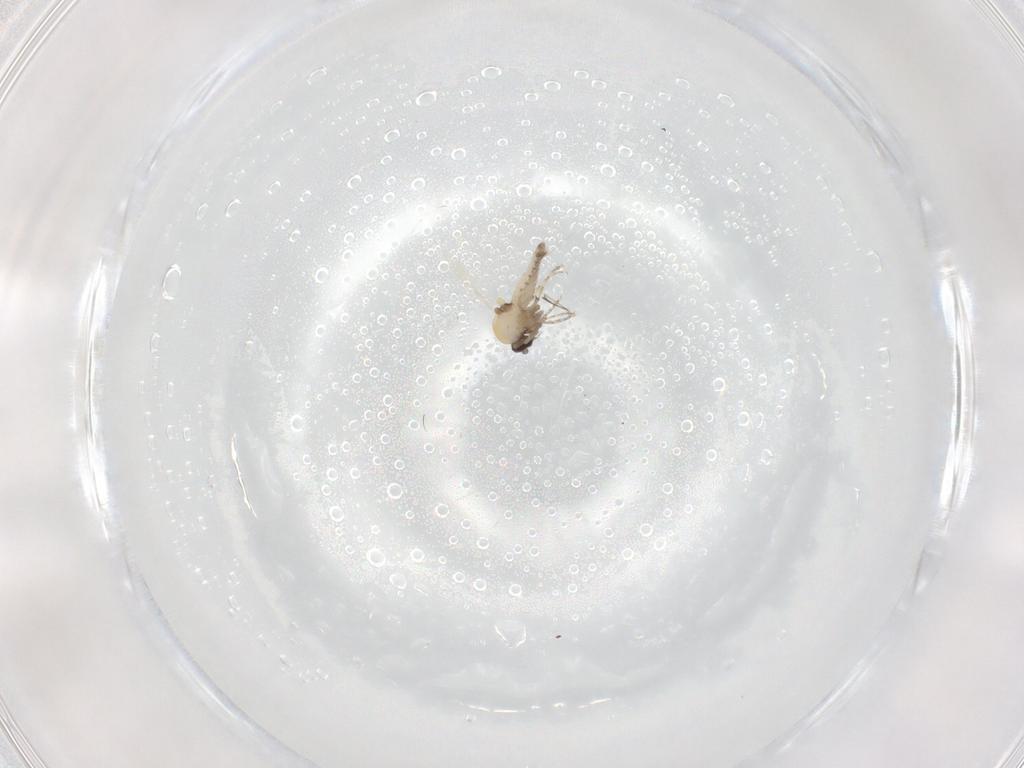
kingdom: Animalia
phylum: Arthropoda
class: Insecta
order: Diptera
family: Ceratopogonidae
